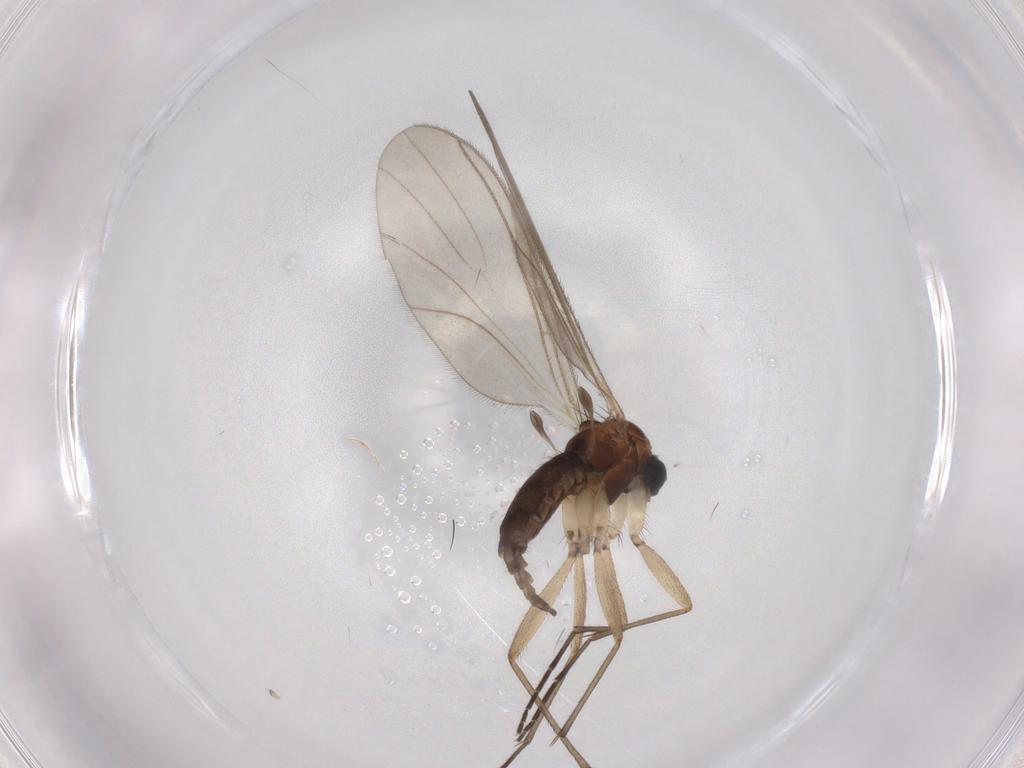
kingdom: Animalia
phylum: Arthropoda
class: Insecta
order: Diptera
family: Sciaridae
